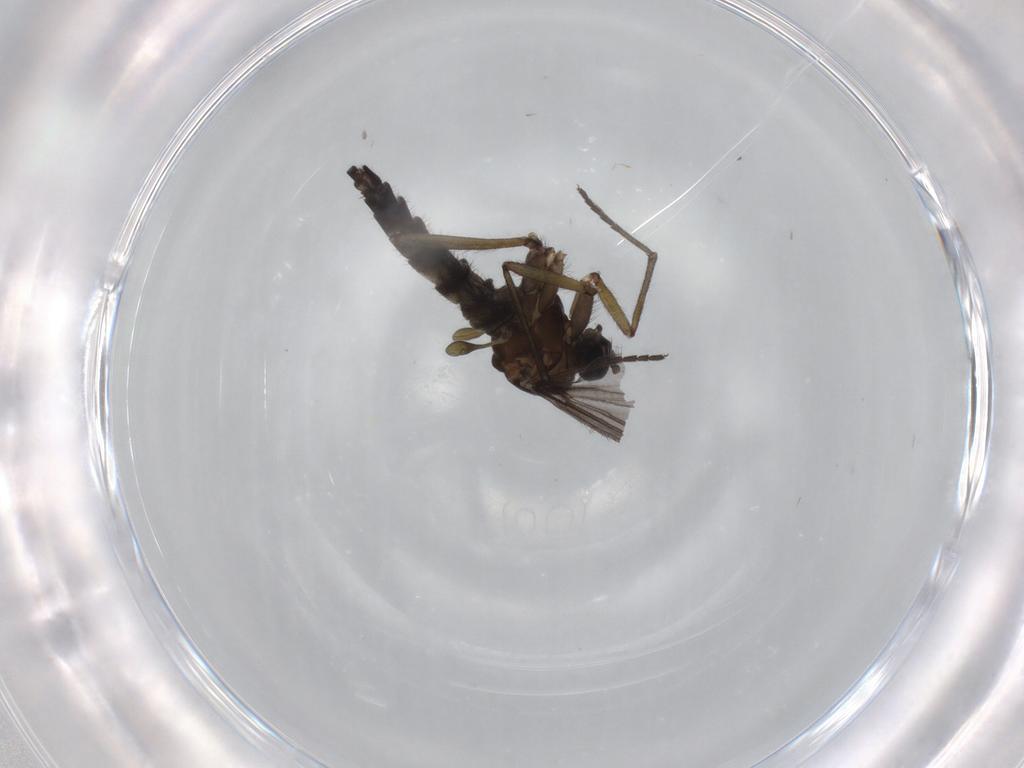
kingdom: Animalia
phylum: Arthropoda
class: Insecta
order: Diptera
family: Sciaridae
